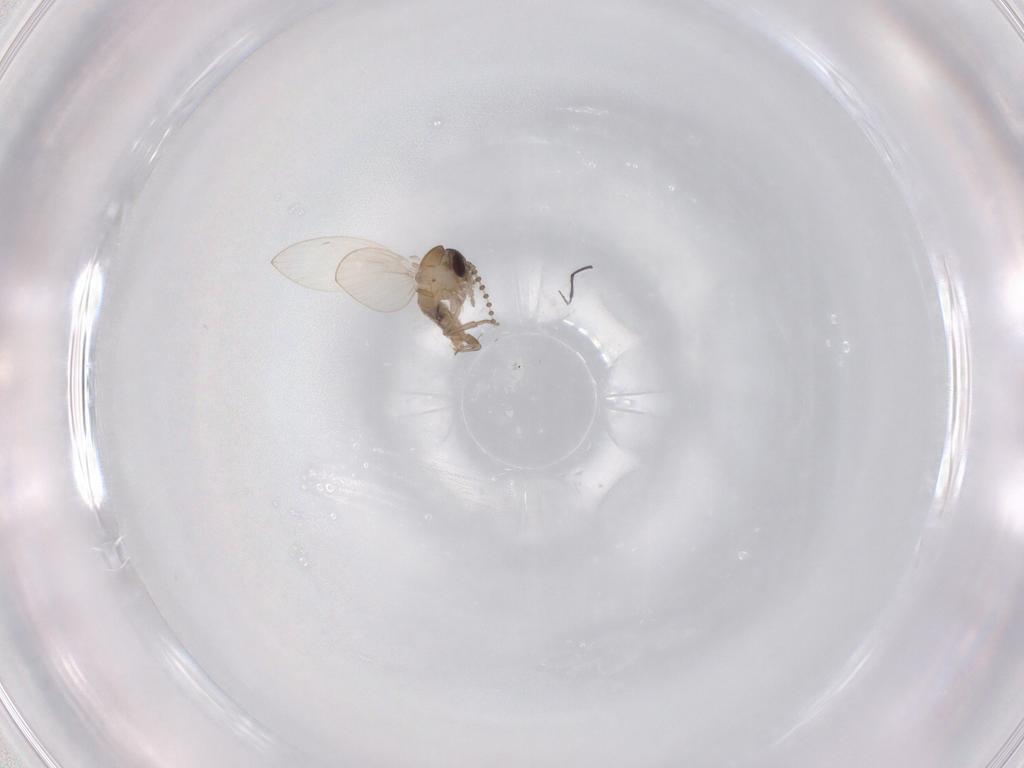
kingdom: Animalia
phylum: Arthropoda
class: Insecta
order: Diptera
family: Psychodidae
